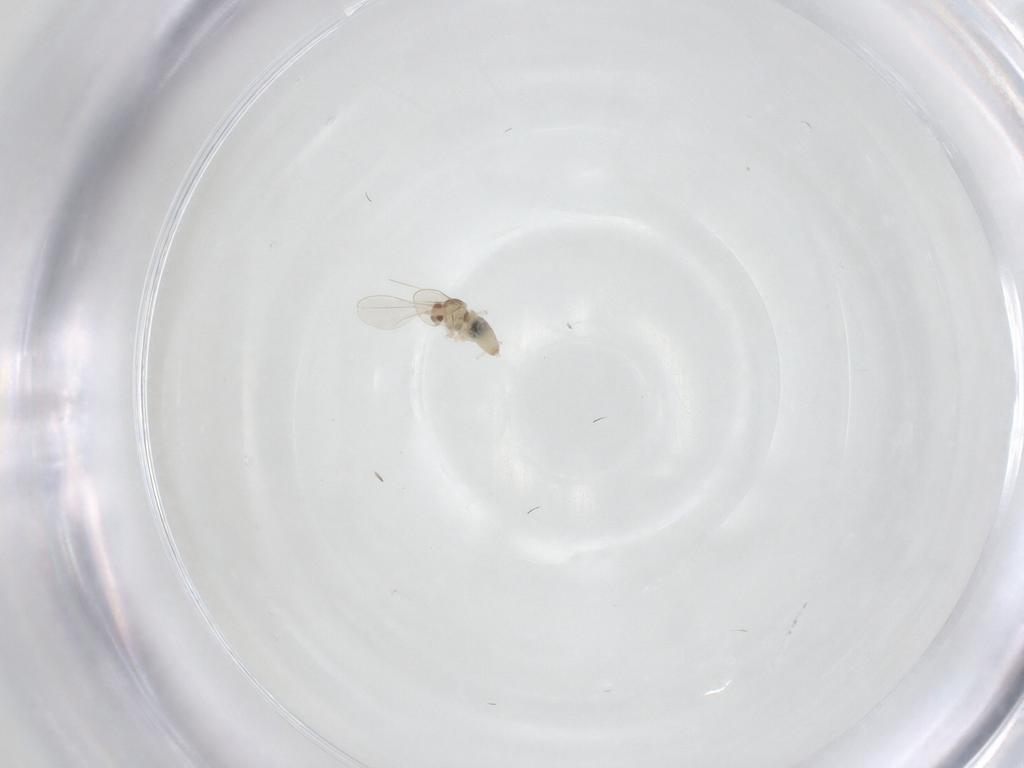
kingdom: Animalia
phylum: Arthropoda
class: Insecta
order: Diptera
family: Cecidomyiidae
